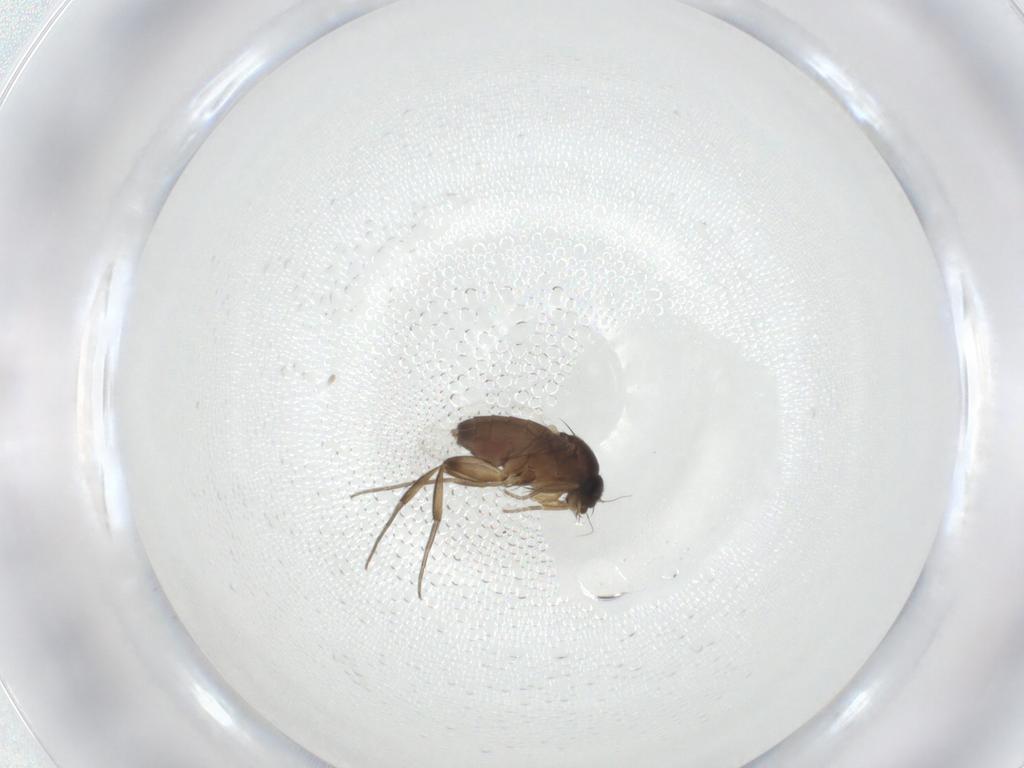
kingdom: Animalia
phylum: Arthropoda
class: Insecta
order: Diptera
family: Phoridae
